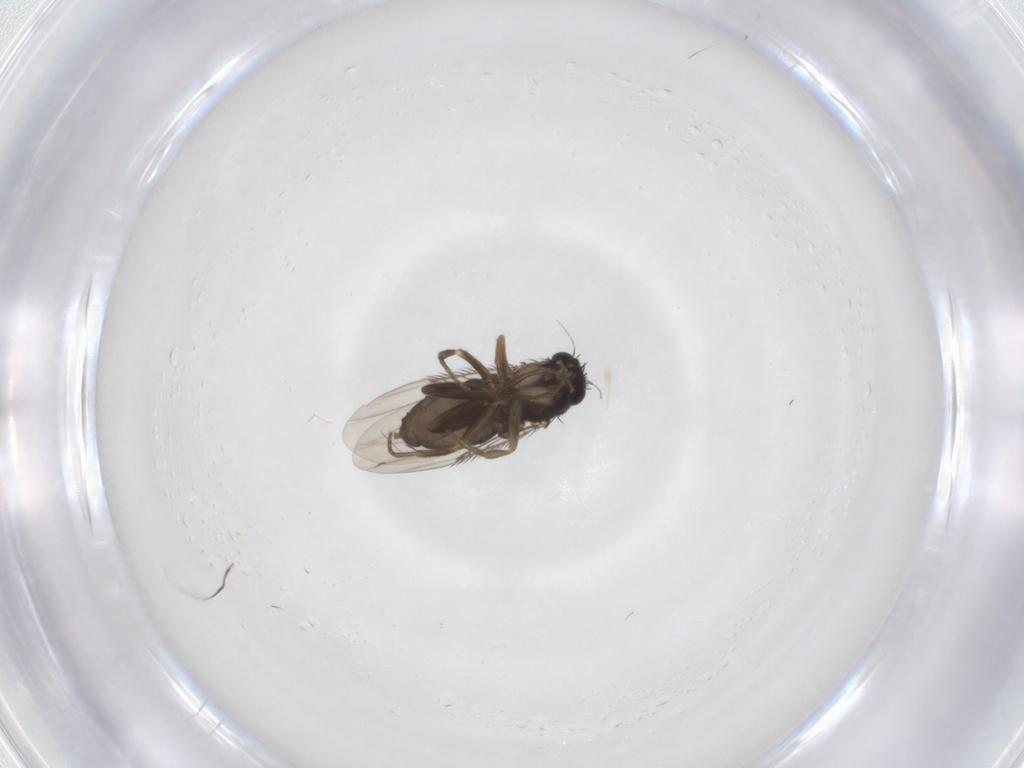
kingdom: Animalia
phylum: Arthropoda
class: Insecta
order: Diptera
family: Phoridae
